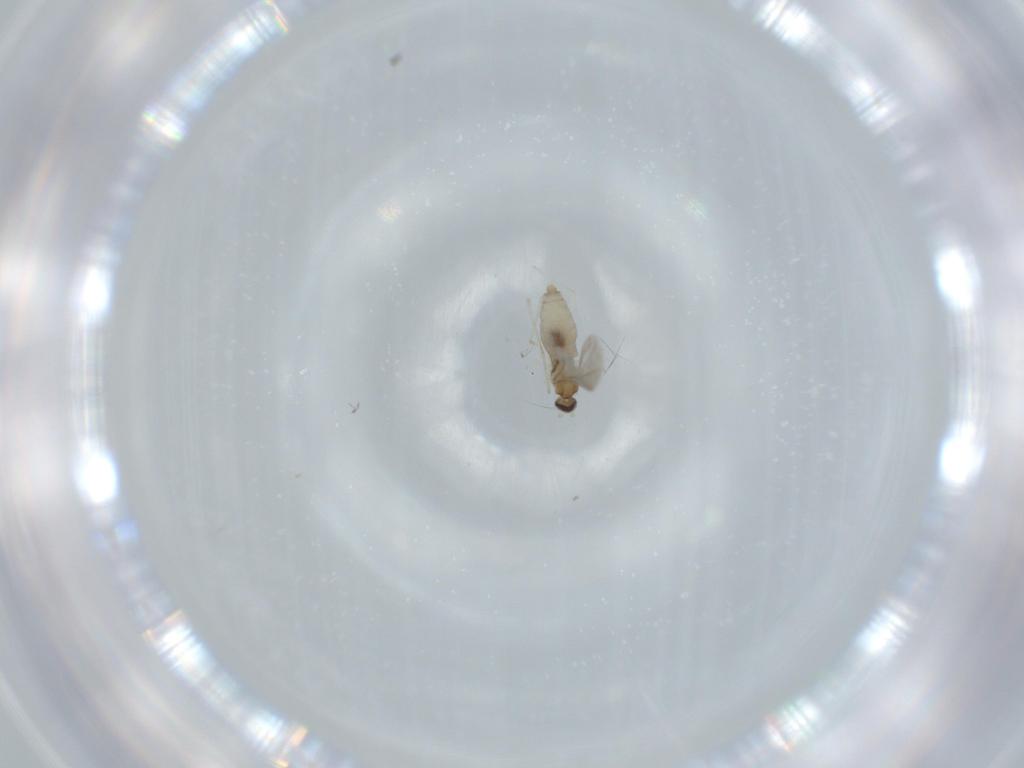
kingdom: Animalia
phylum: Arthropoda
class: Insecta
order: Diptera
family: Cecidomyiidae
